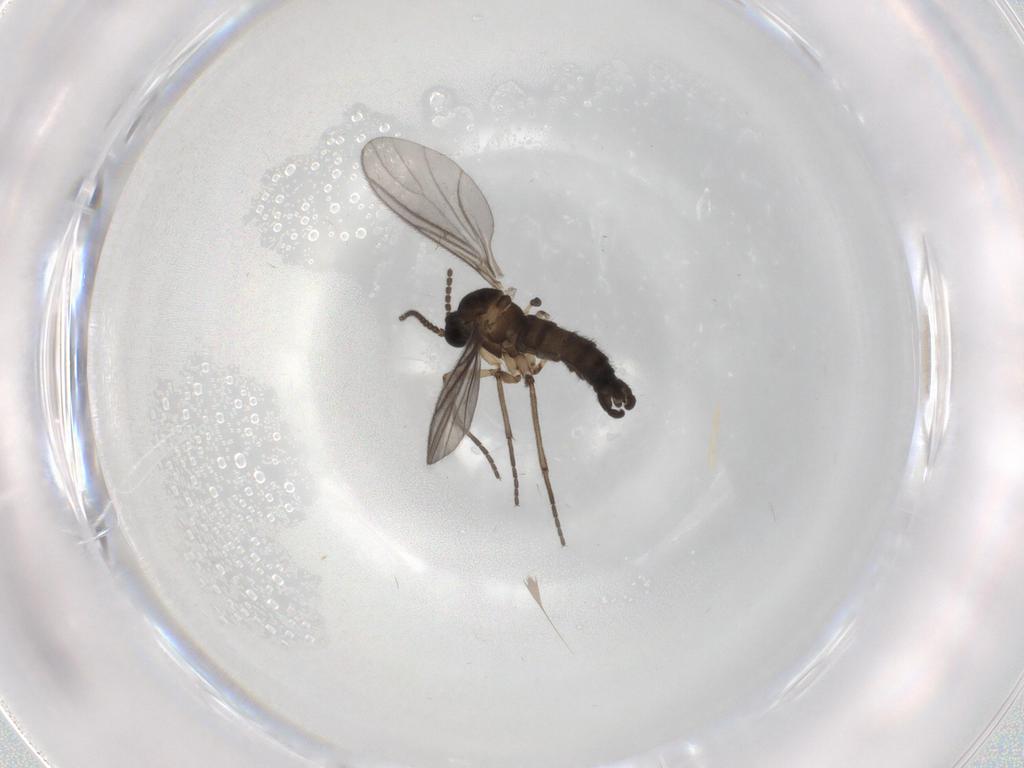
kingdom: Animalia
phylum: Arthropoda
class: Insecta
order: Diptera
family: Sciaridae
